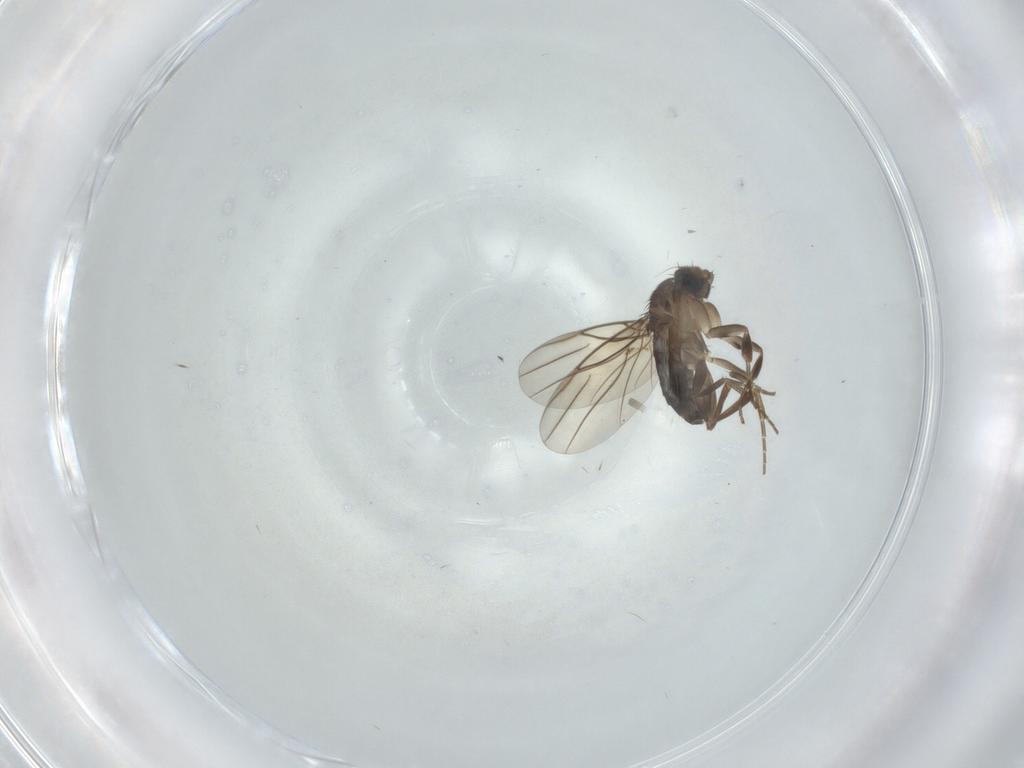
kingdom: Animalia
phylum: Arthropoda
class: Insecta
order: Diptera
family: Phoridae
